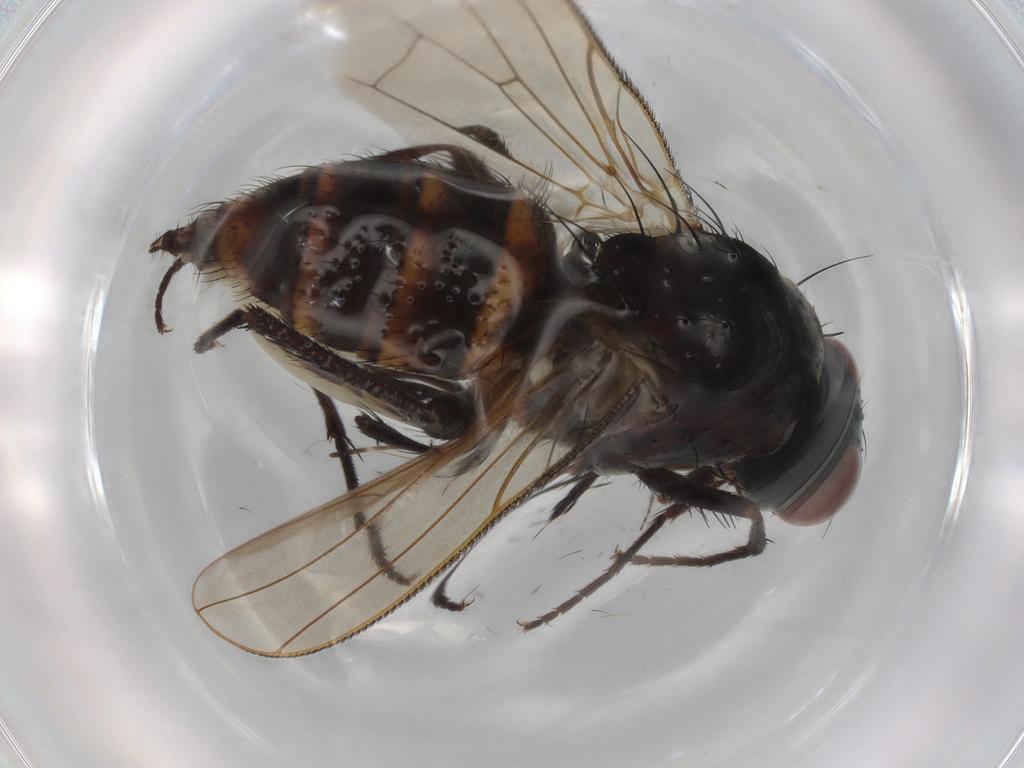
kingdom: Animalia
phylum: Arthropoda
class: Insecta
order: Diptera
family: Anthomyiidae
